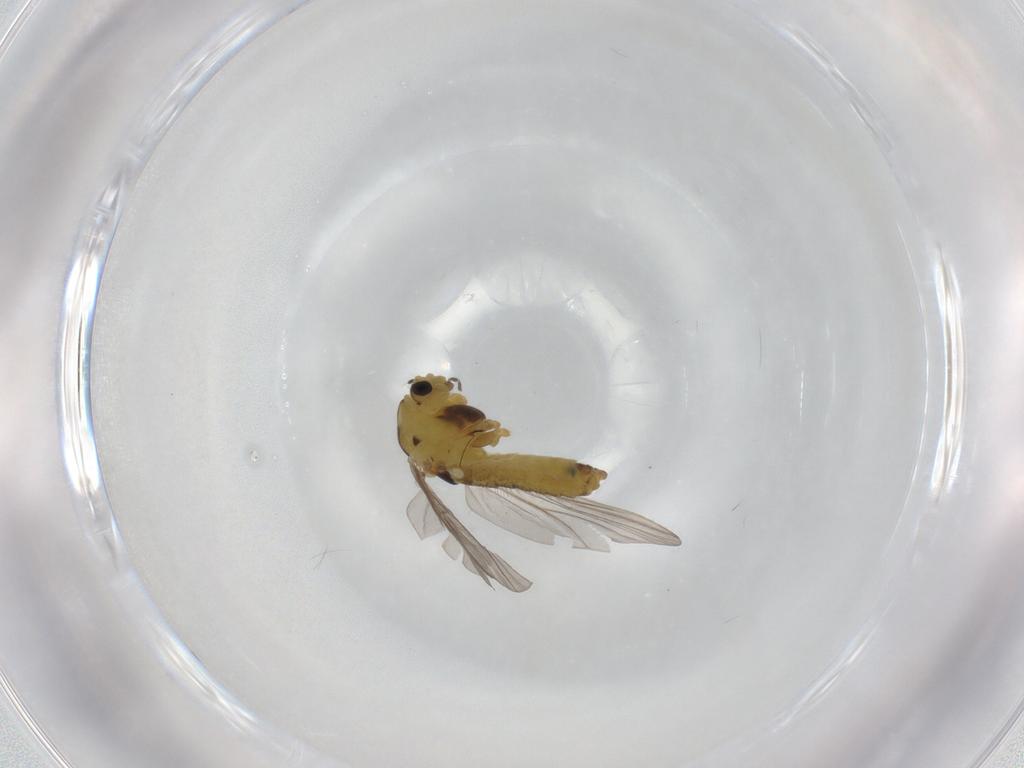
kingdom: Animalia
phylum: Arthropoda
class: Insecta
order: Diptera
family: Chironomidae
